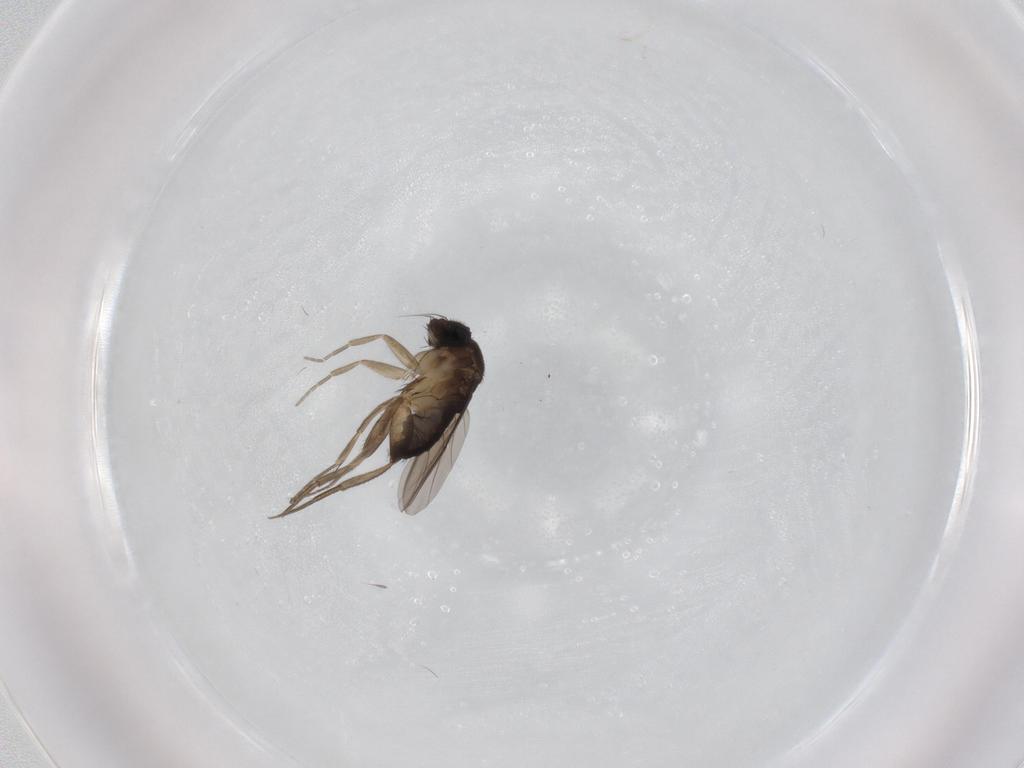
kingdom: Animalia
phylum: Arthropoda
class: Insecta
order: Diptera
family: Phoridae
